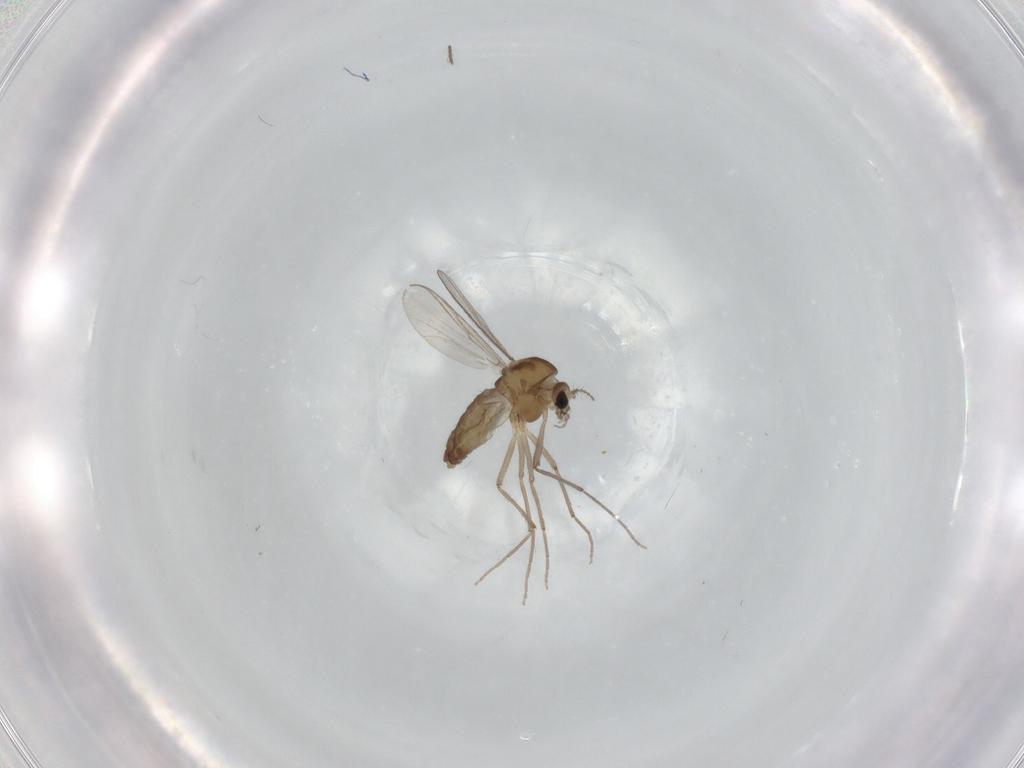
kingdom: Animalia
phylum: Arthropoda
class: Insecta
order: Diptera
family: Chironomidae
